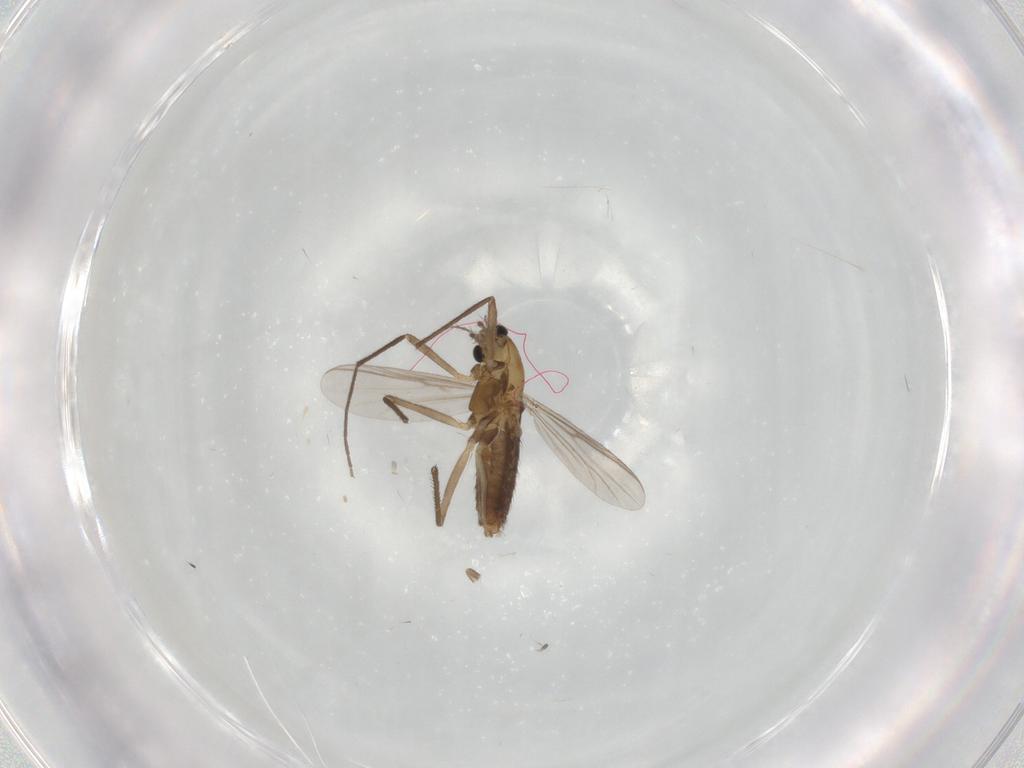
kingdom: Animalia
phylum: Arthropoda
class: Insecta
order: Diptera
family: Chironomidae
